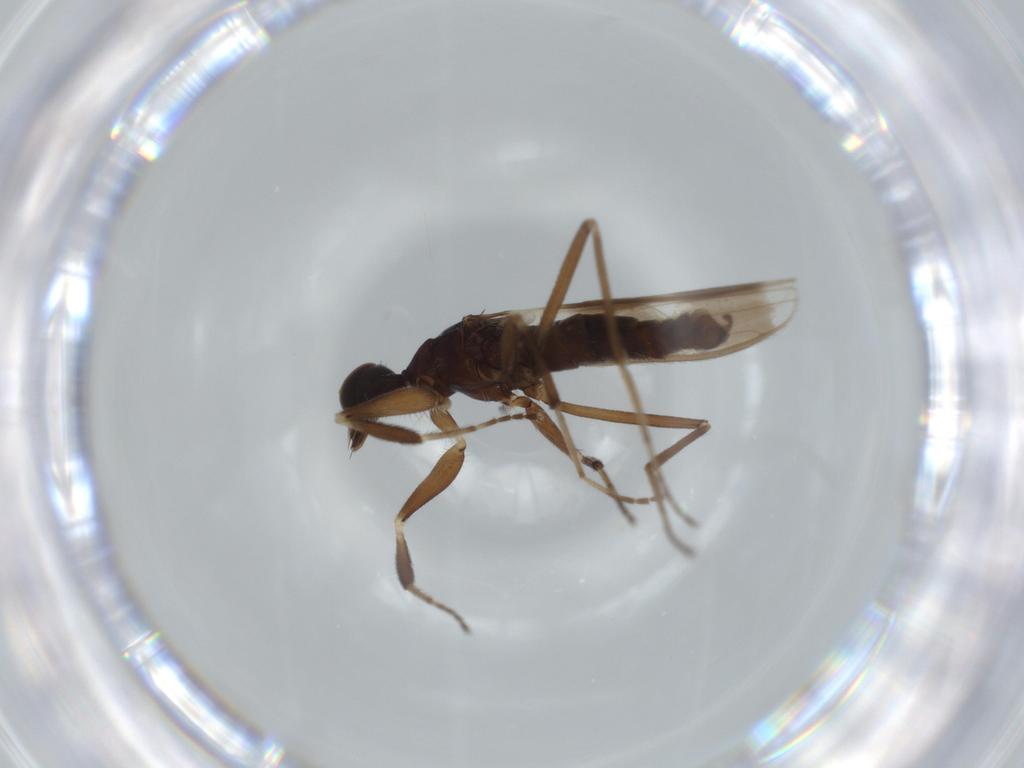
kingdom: Animalia
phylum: Arthropoda
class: Insecta
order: Diptera
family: Hybotidae
